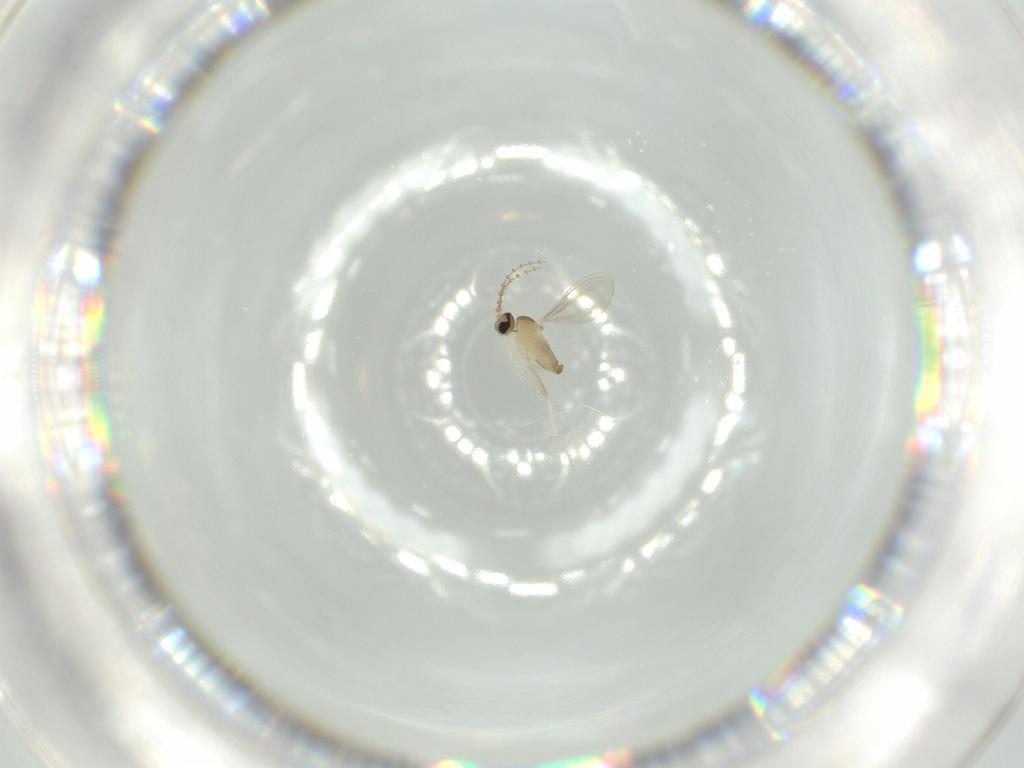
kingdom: Animalia
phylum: Arthropoda
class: Insecta
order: Diptera
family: Cecidomyiidae
